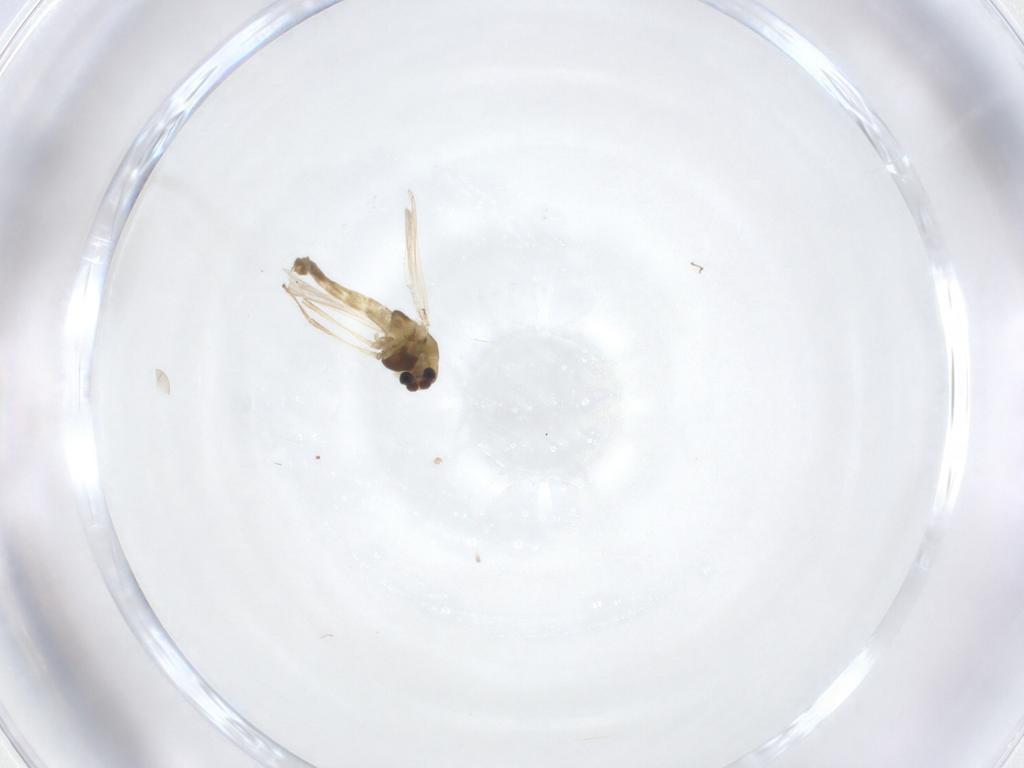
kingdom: Animalia
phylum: Arthropoda
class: Insecta
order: Diptera
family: Chironomidae
